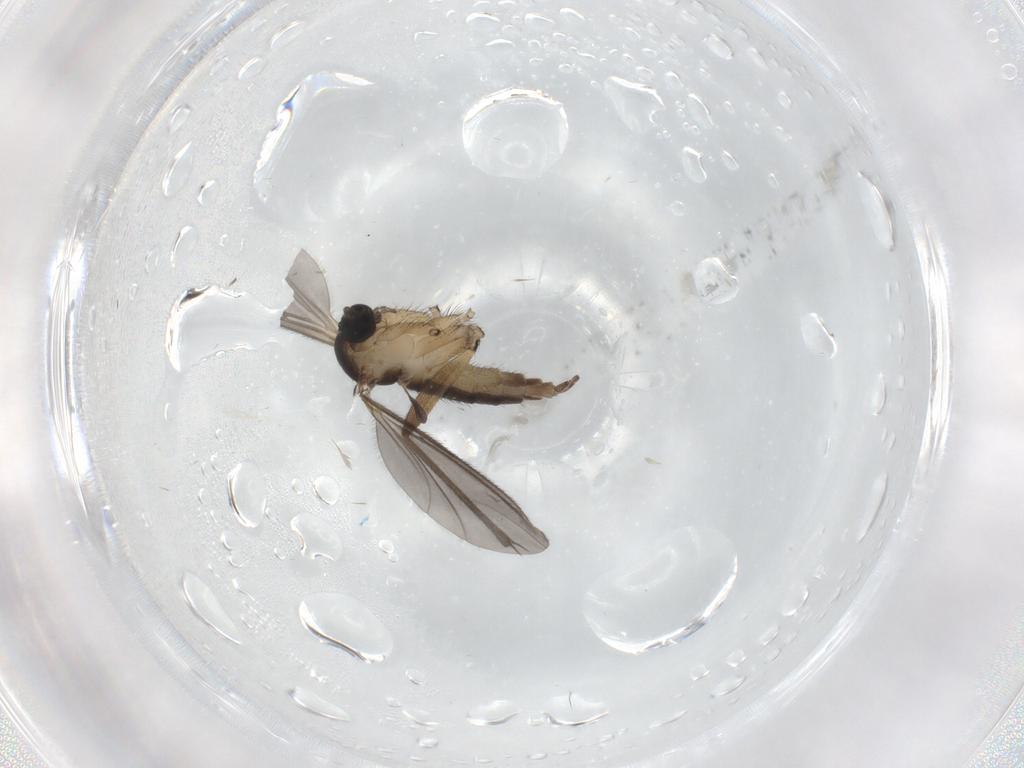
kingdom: Animalia
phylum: Arthropoda
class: Insecta
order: Diptera
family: Sciaridae
